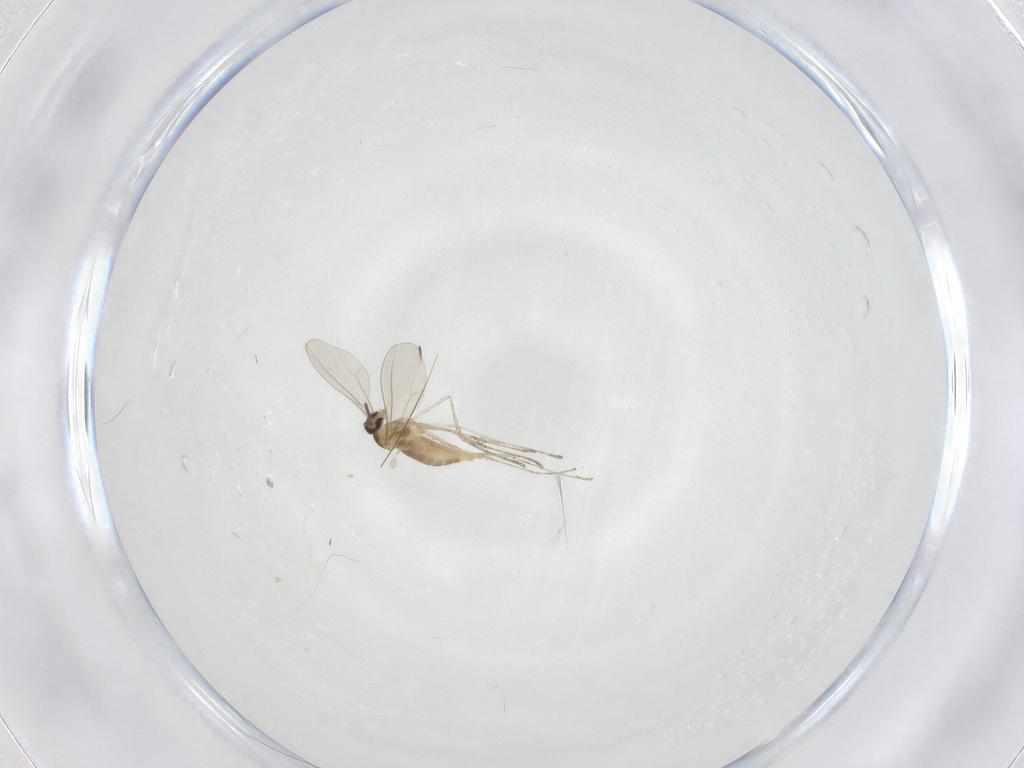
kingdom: Animalia
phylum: Arthropoda
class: Insecta
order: Diptera
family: Cecidomyiidae
